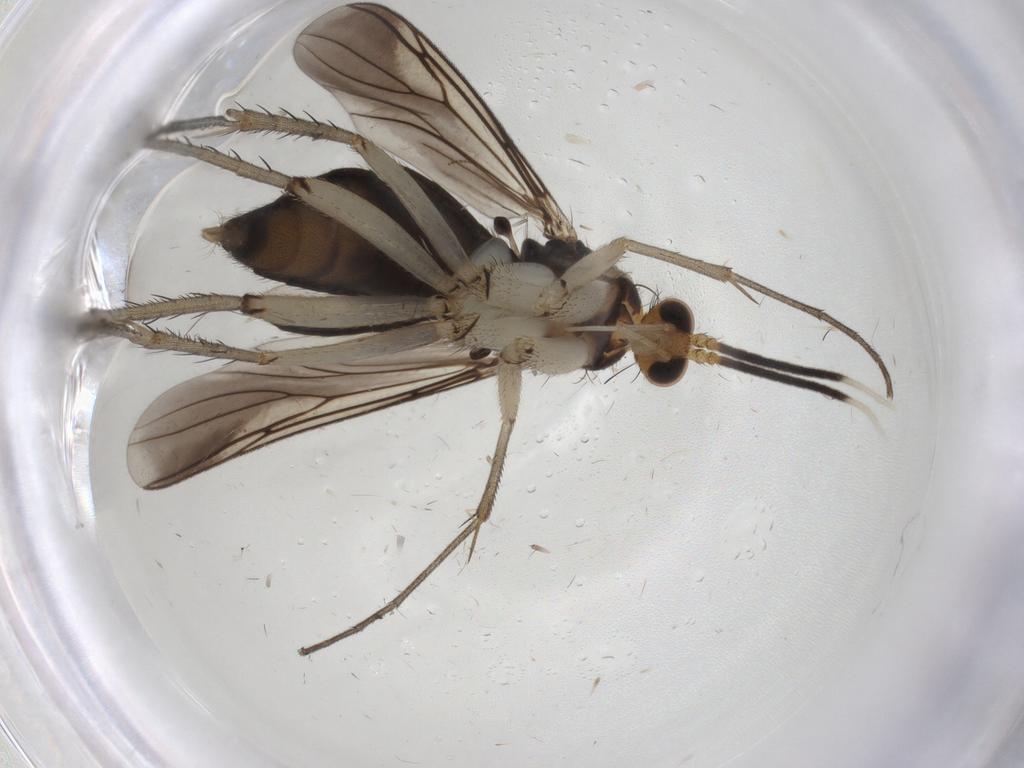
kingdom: Animalia
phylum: Arthropoda
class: Insecta
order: Diptera
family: Mycetophilidae
